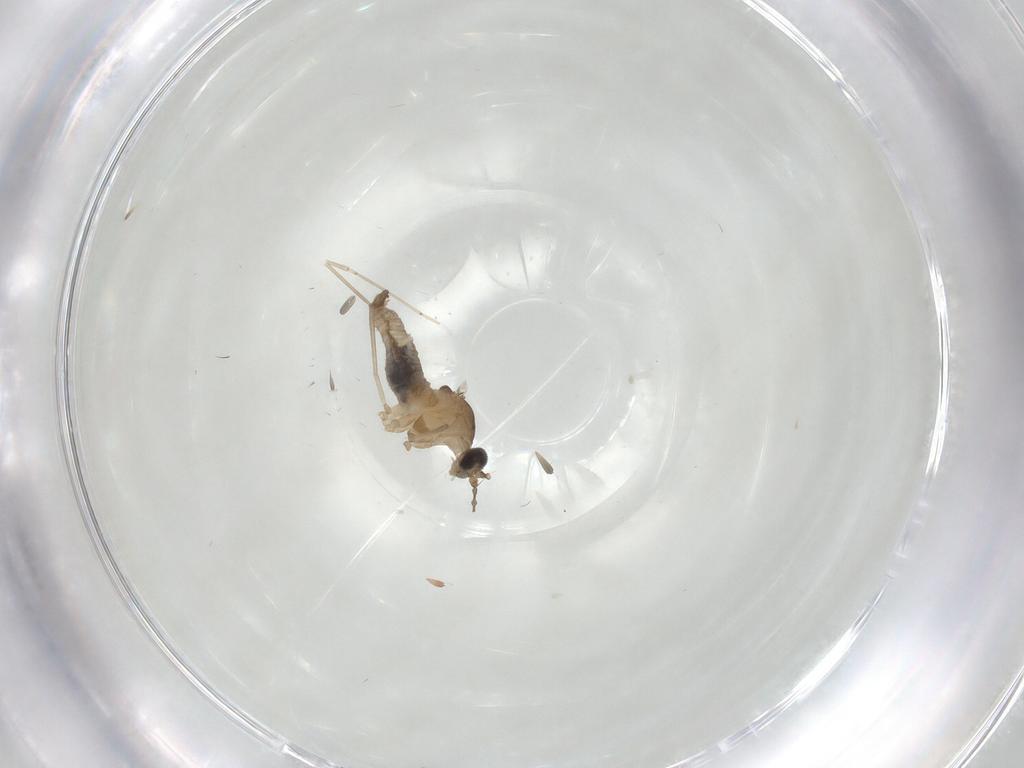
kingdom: Animalia
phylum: Arthropoda
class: Insecta
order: Diptera
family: Cecidomyiidae
